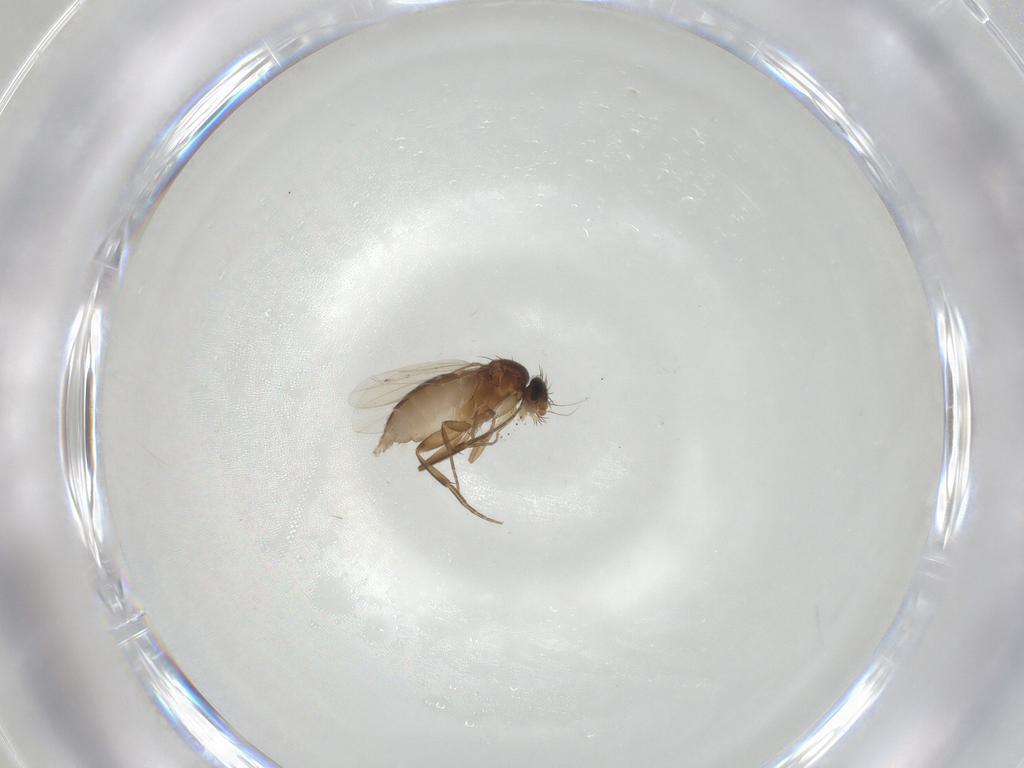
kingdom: Animalia
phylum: Arthropoda
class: Insecta
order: Diptera
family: Phoridae
